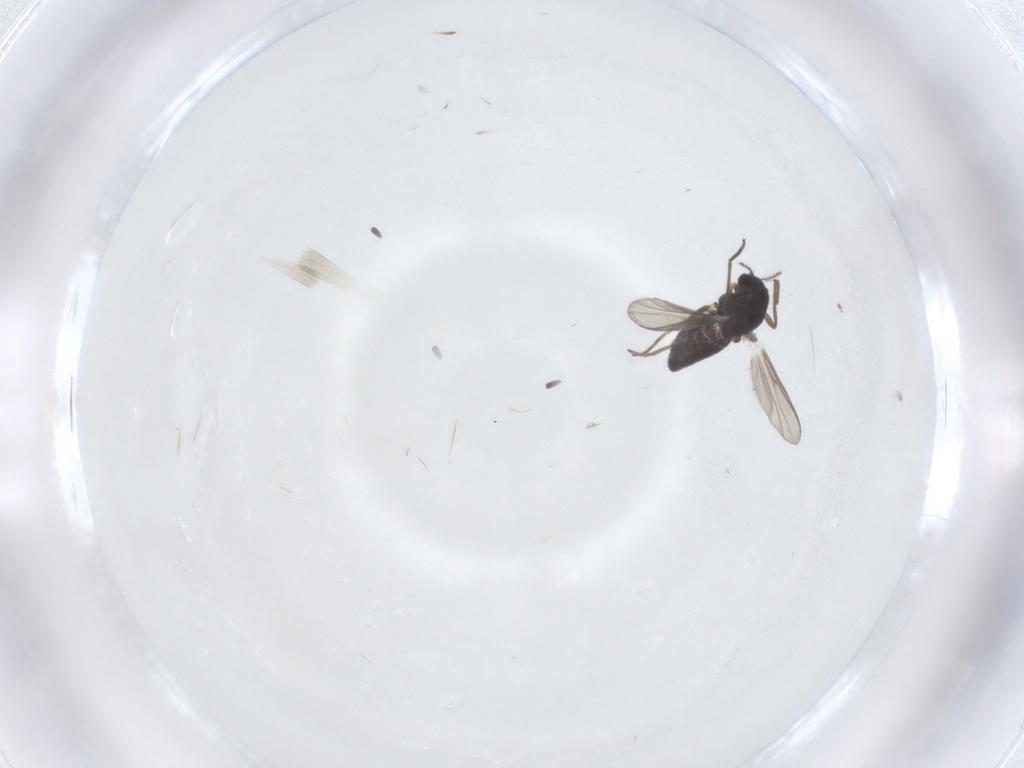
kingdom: Animalia
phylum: Arthropoda
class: Insecta
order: Diptera
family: Chironomidae
